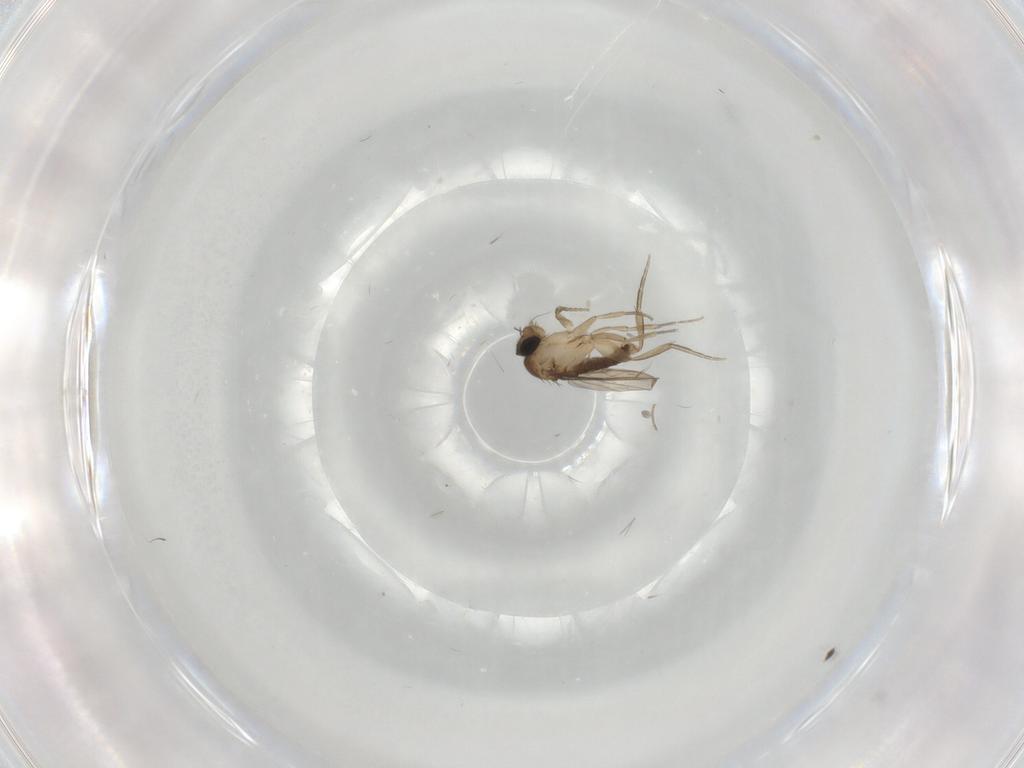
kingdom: Animalia
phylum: Arthropoda
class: Insecta
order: Diptera
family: Phoridae
